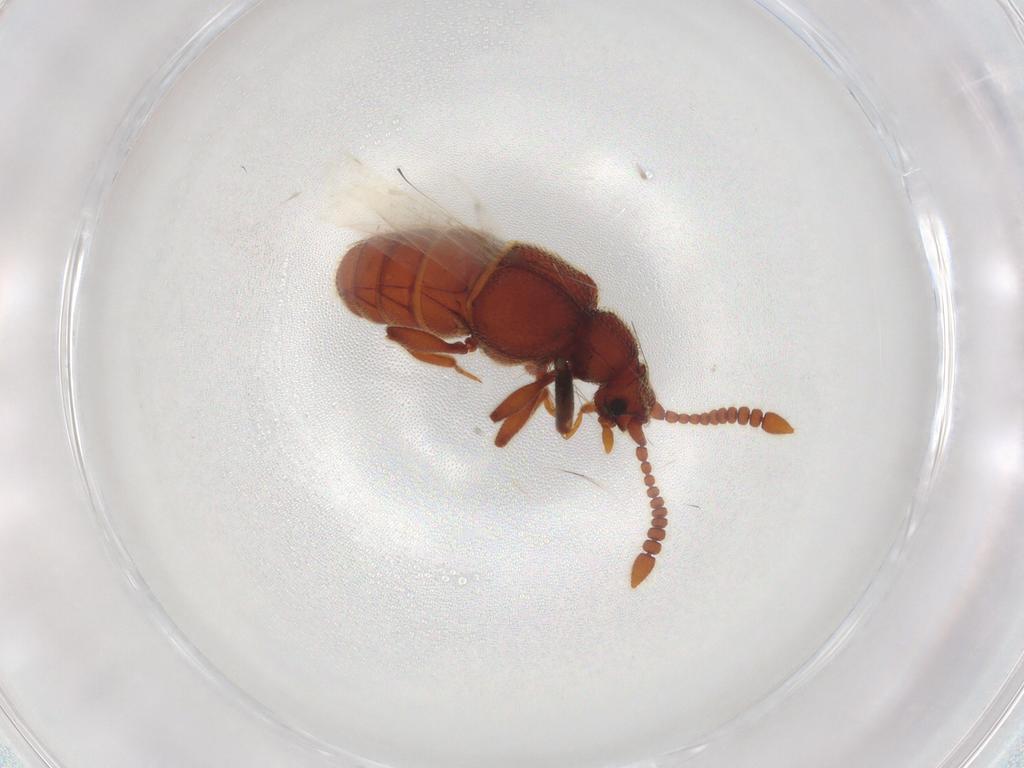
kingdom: Animalia
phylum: Arthropoda
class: Insecta
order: Coleoptera
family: Staphylinidae
